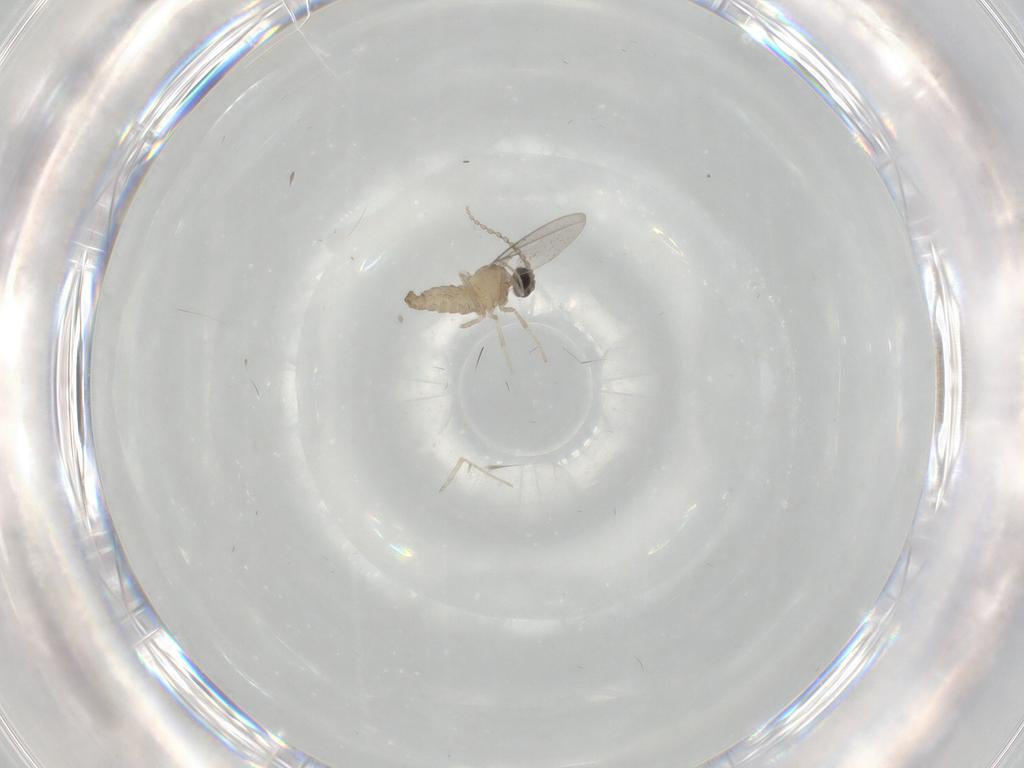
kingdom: Animalia
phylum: Arthropoda
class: Insecta
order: Diptera
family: Cecidomyiidae
